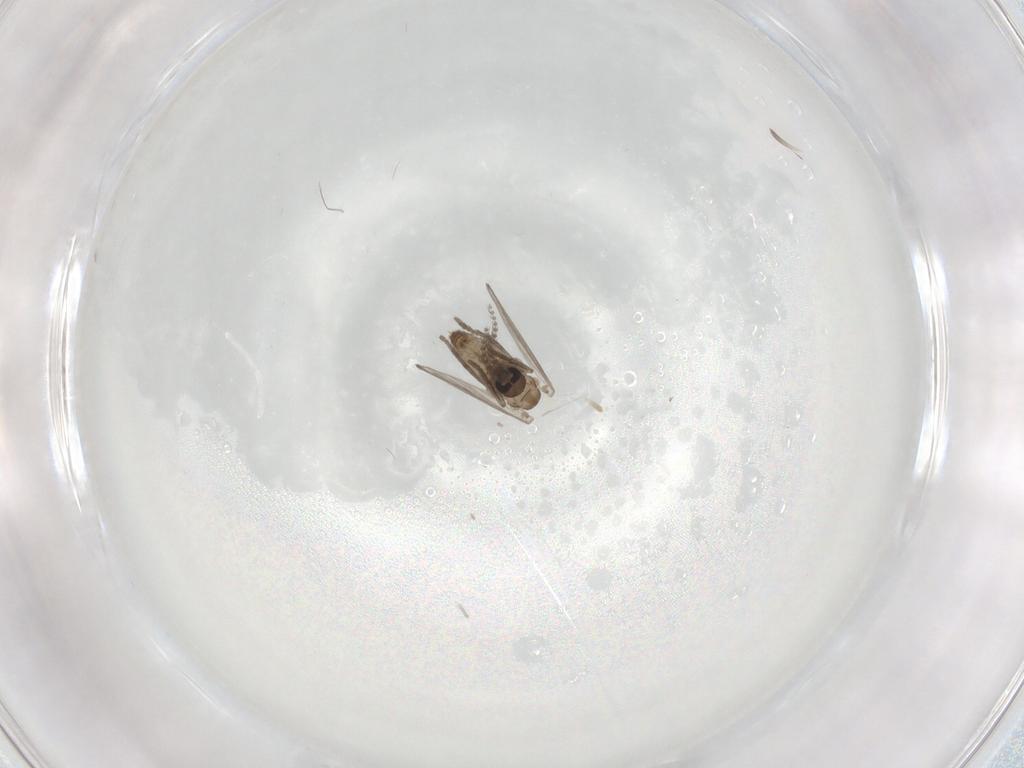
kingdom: Animalia
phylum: Arthropoda
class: Insecta
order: Diptera
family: Psychodidae
